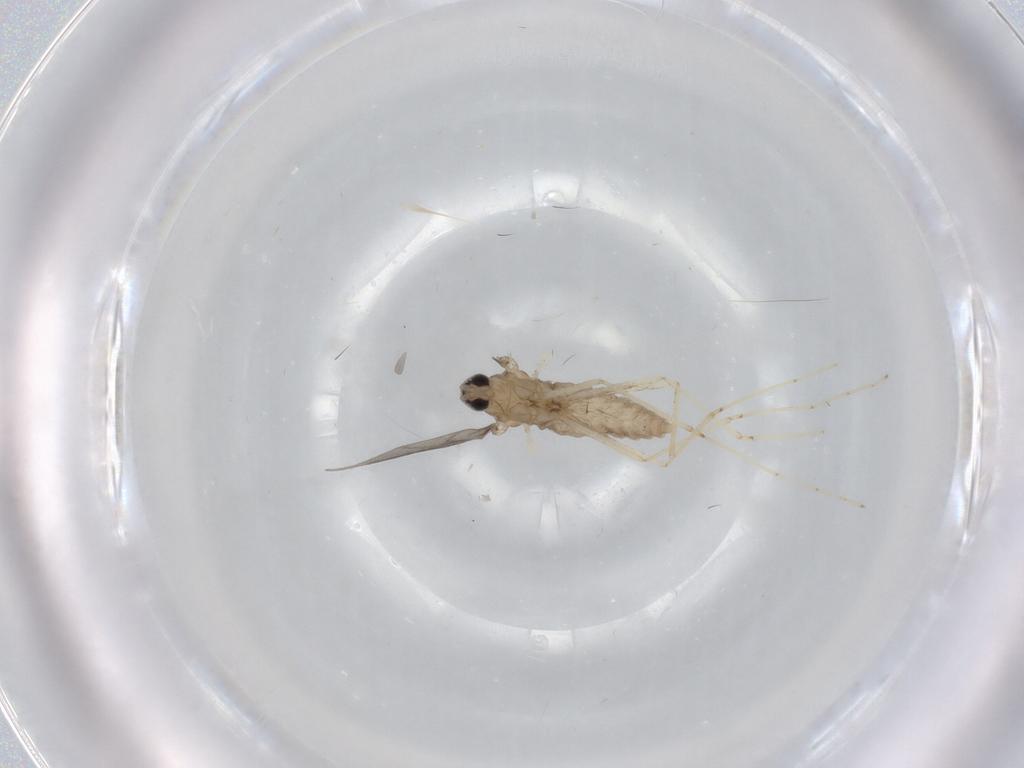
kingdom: Animalia
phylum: Arthropoda
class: Insecta
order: Diptera
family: Cecidomyiidae
